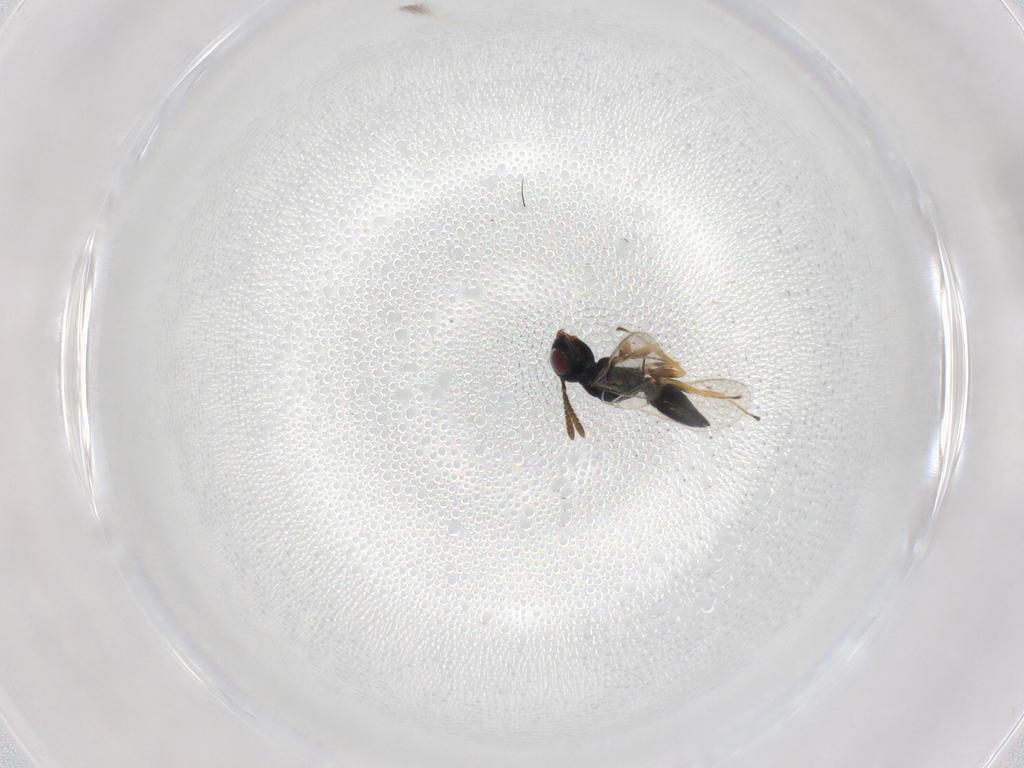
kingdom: Animalia
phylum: Arthropoda
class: Insecta
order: Hymenoptera
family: Pteromalidae
